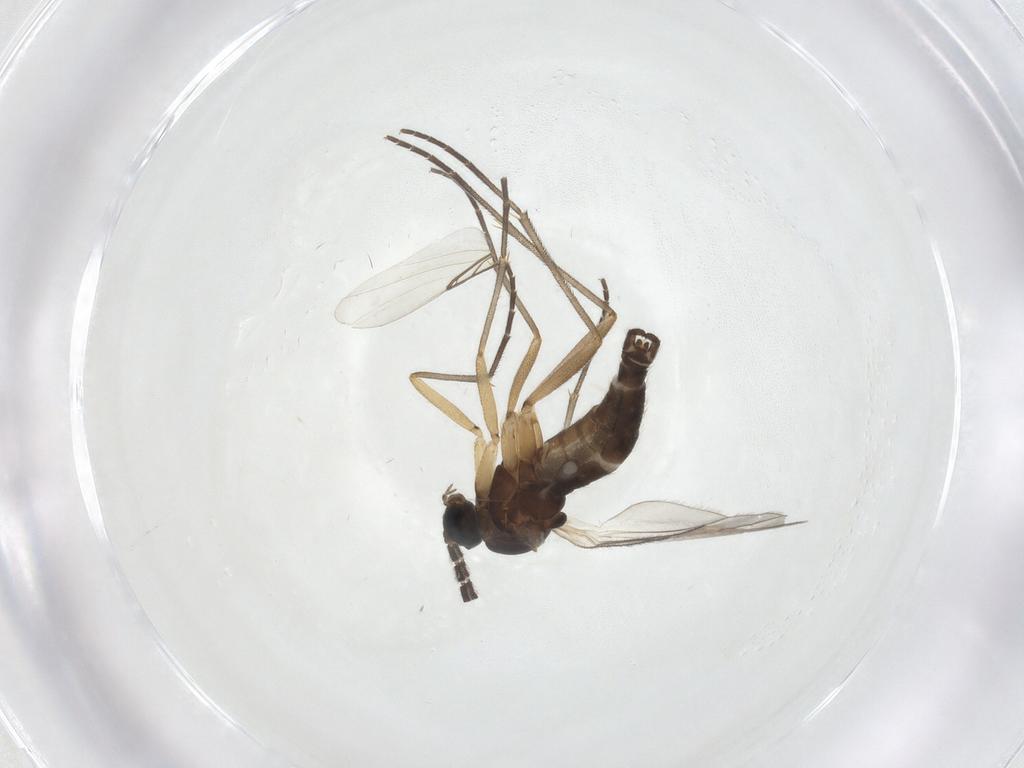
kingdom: Animalia
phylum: Arthropoda
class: Insecta
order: Diptera
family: Sciaridae
